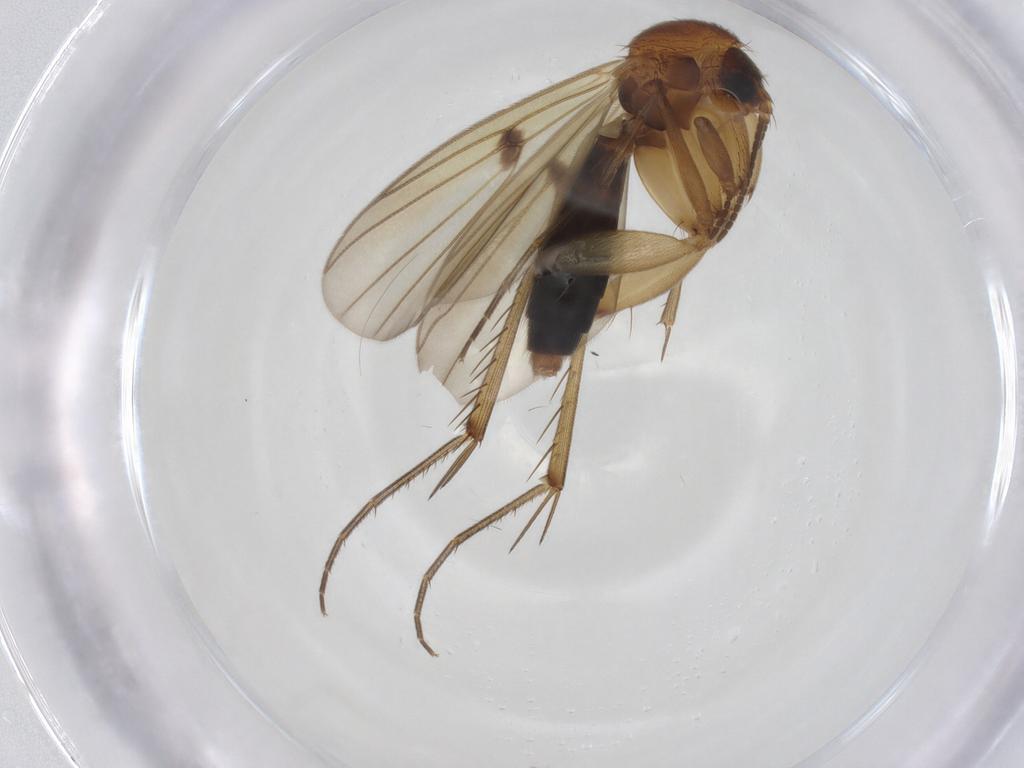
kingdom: Animalia
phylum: Arthropoda
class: Insecta
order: Diptera
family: Mycetophilidae
